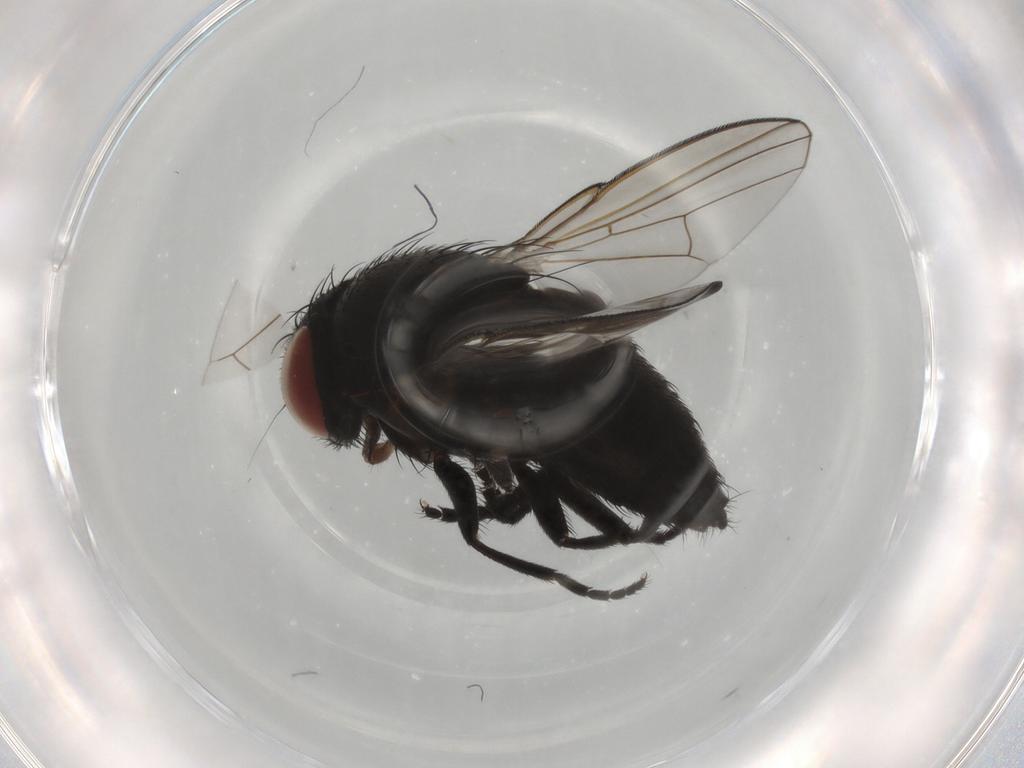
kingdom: Animalia
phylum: Arthropoda
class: Insecta
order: Diptera
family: Milichiidae
